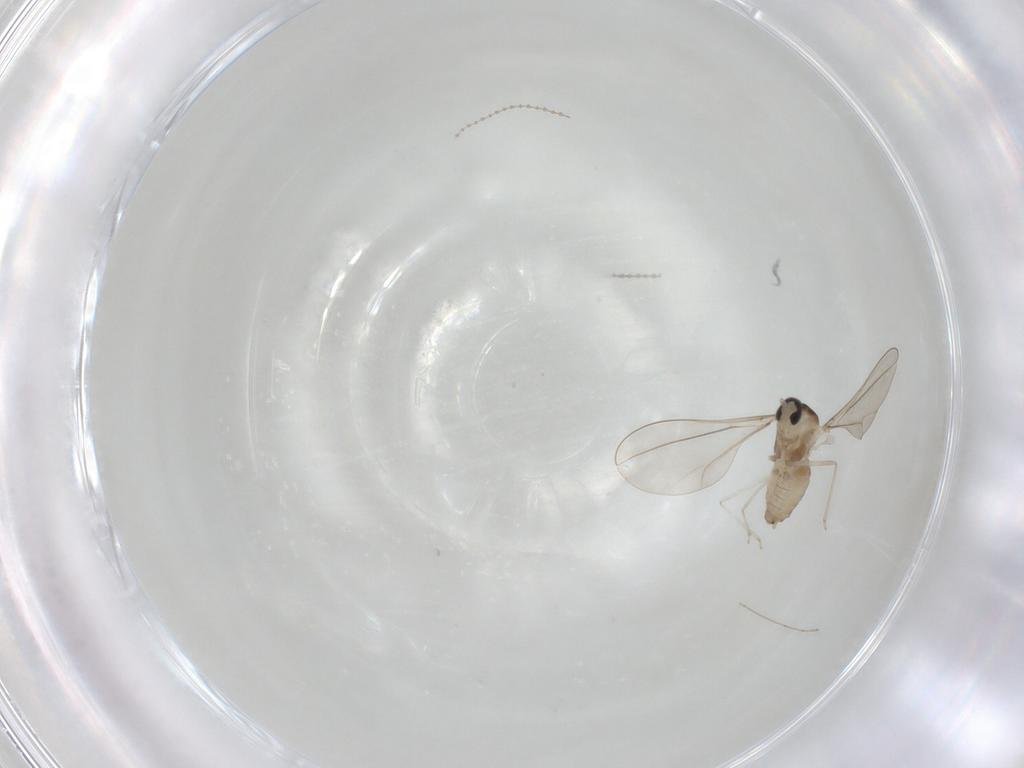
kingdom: Animalia
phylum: Arthropoda
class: Insecta
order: Diptera
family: Cecidomyiidae
